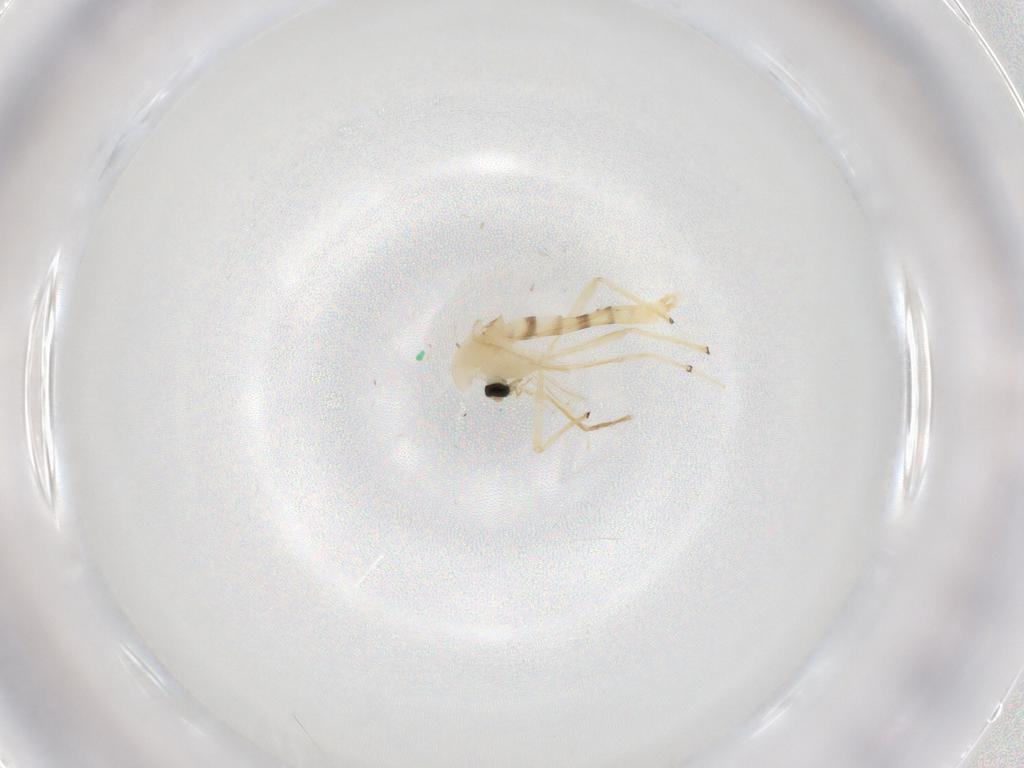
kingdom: Animalia
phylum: Arthropoda
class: Insecta
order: Diptera
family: Chironomidae
